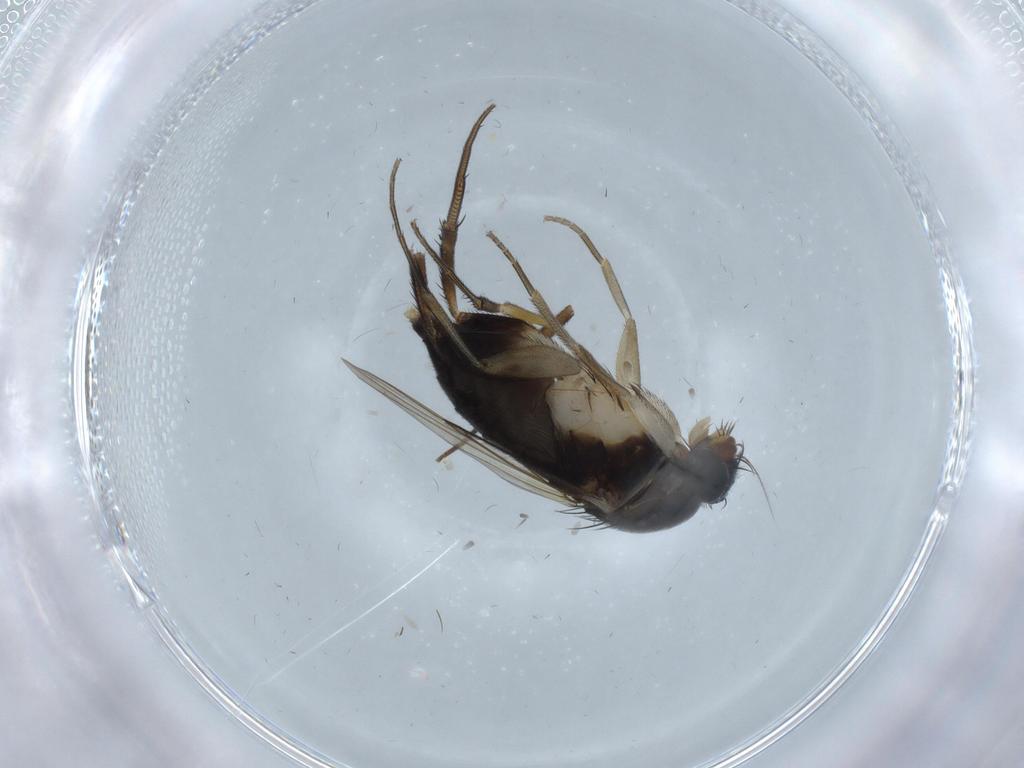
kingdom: Animalia
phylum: Arthropoda
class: Insecta
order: Diptera
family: Phoridae
